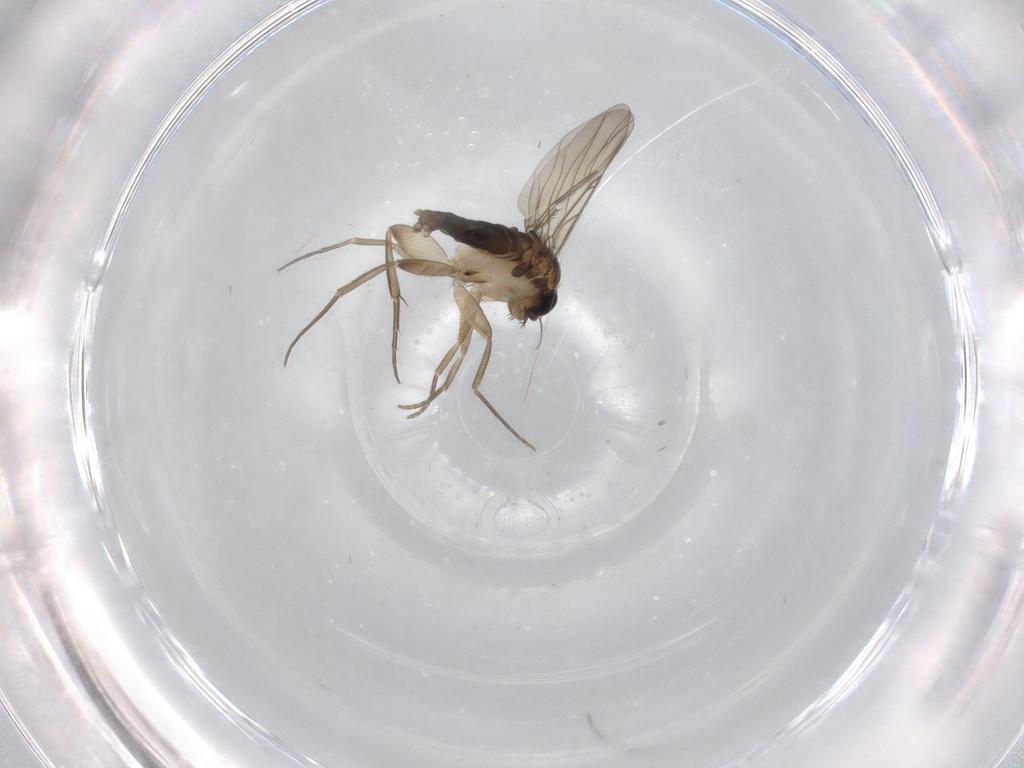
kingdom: Animalia
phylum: Arthropoda
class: Insecta
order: Diptera
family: Phoridae
